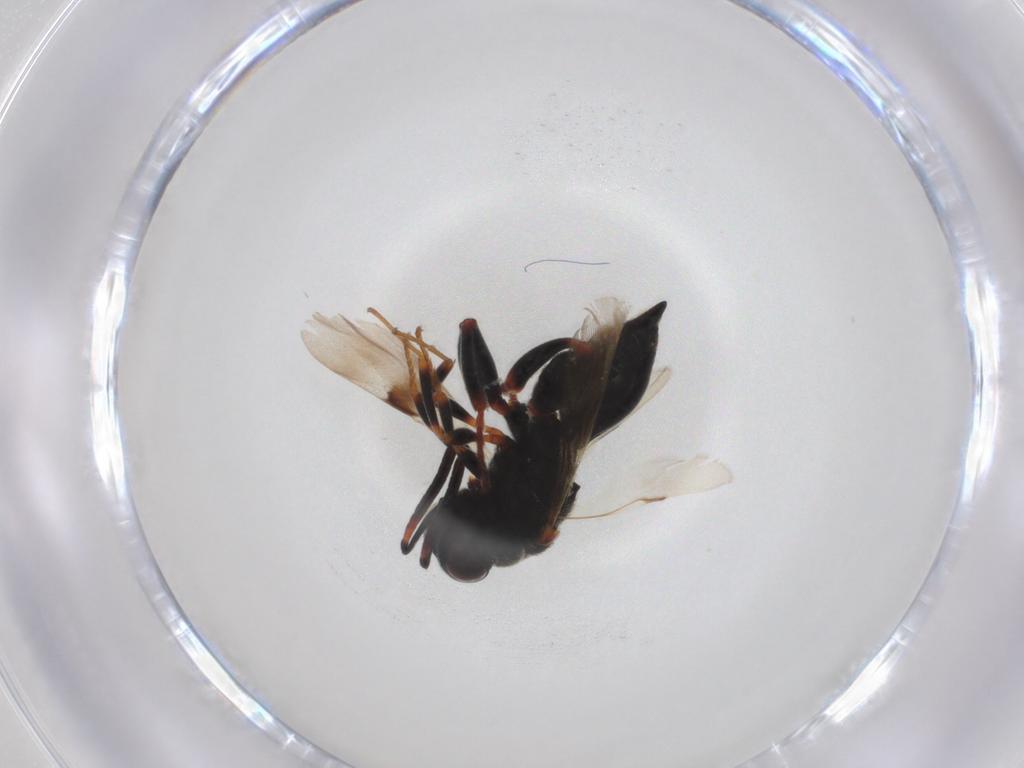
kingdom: Animalia
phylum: Arthropoda
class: Insecta
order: Hymenoptera
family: Chalcididae
